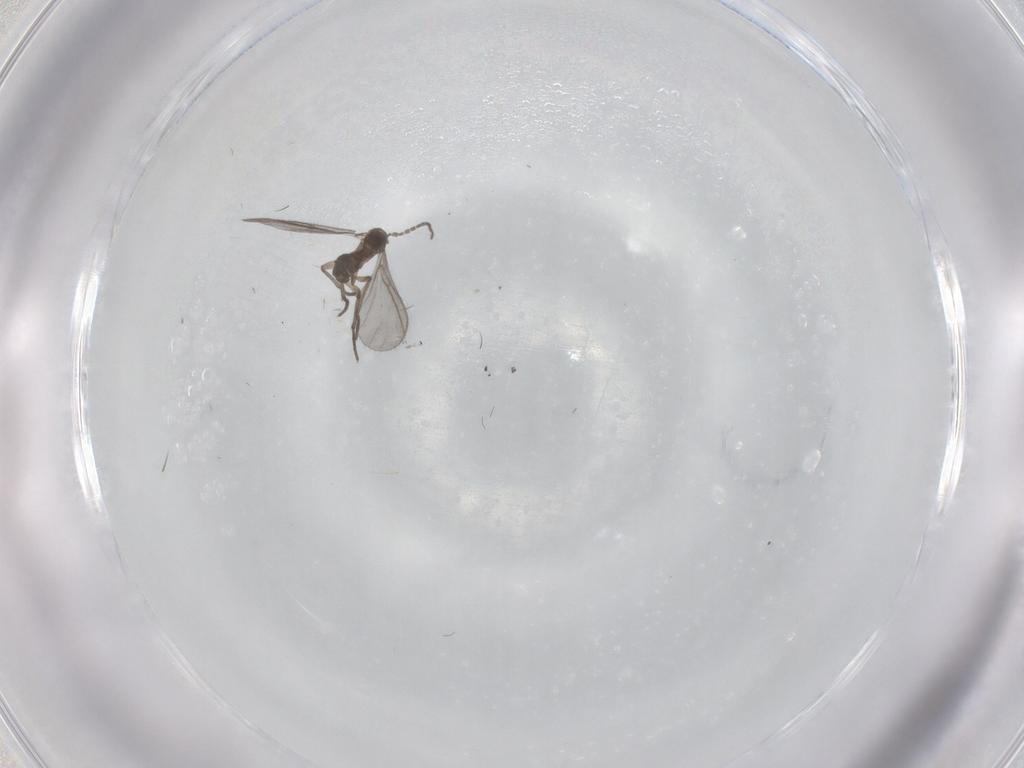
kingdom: Animalia
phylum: Arthropoda
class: Insecta
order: Diptera
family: Sciaridae
